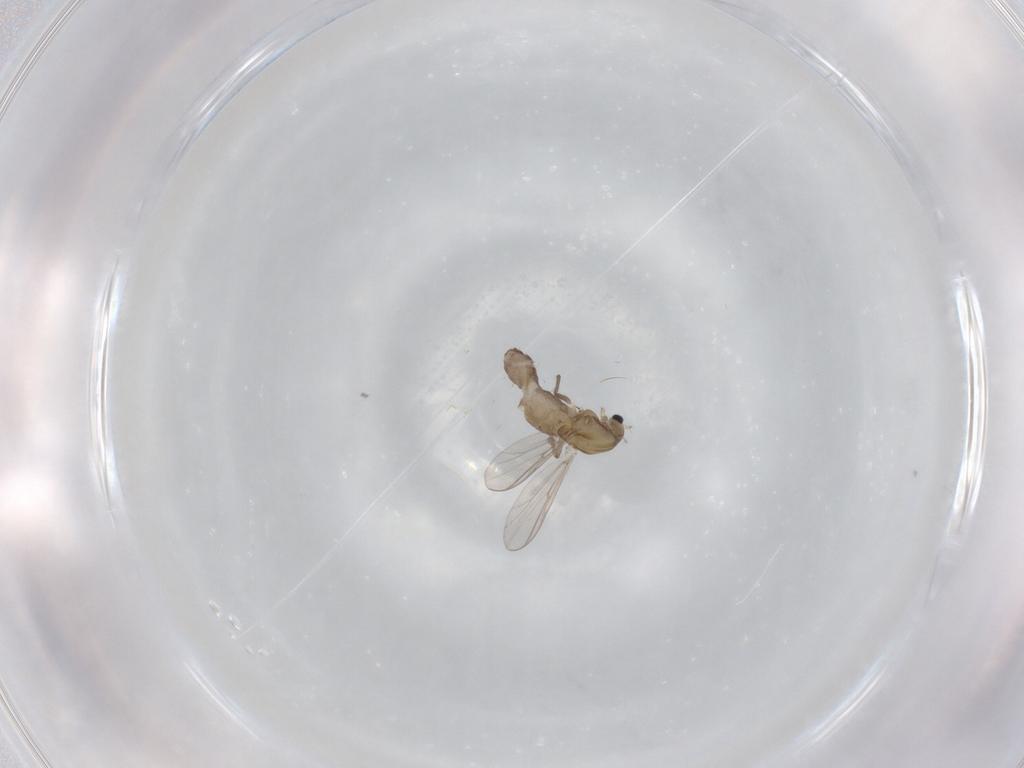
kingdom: Animalia
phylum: Arthropoda
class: Insecta
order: Diptera
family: Chironomidae
